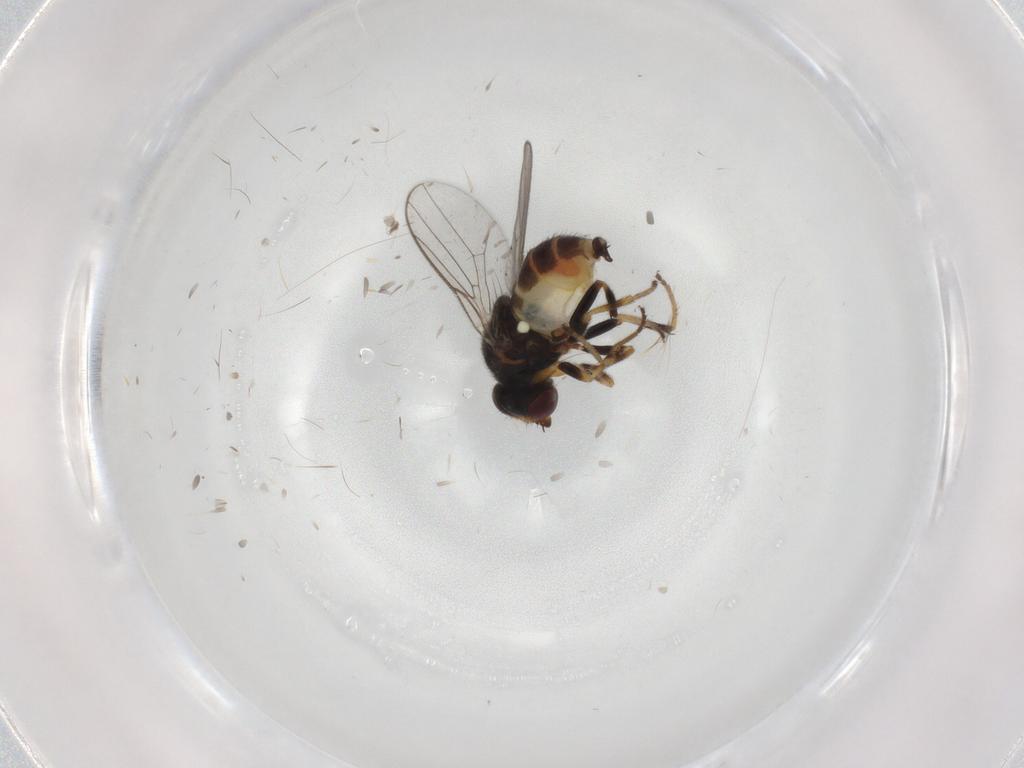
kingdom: Animalia
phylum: Arthropoda
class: Insecta
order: Diptera
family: Chloropidae
